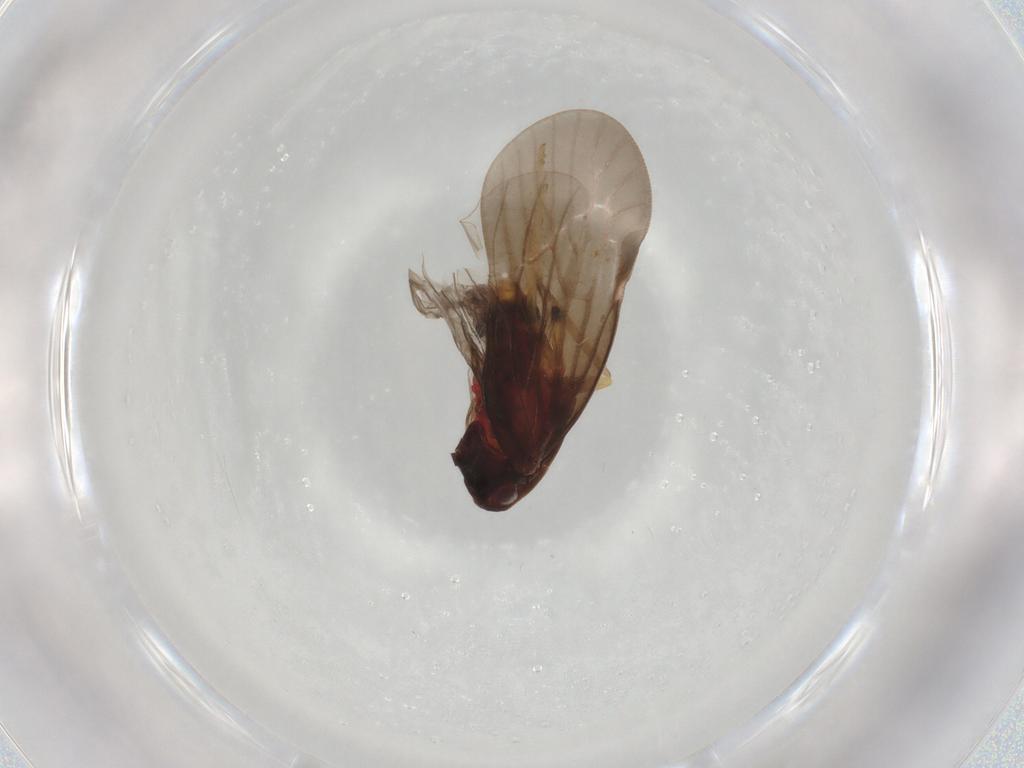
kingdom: Animalia
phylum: Arthropoda
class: Insecta
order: Hemiptera
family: Derbidae
